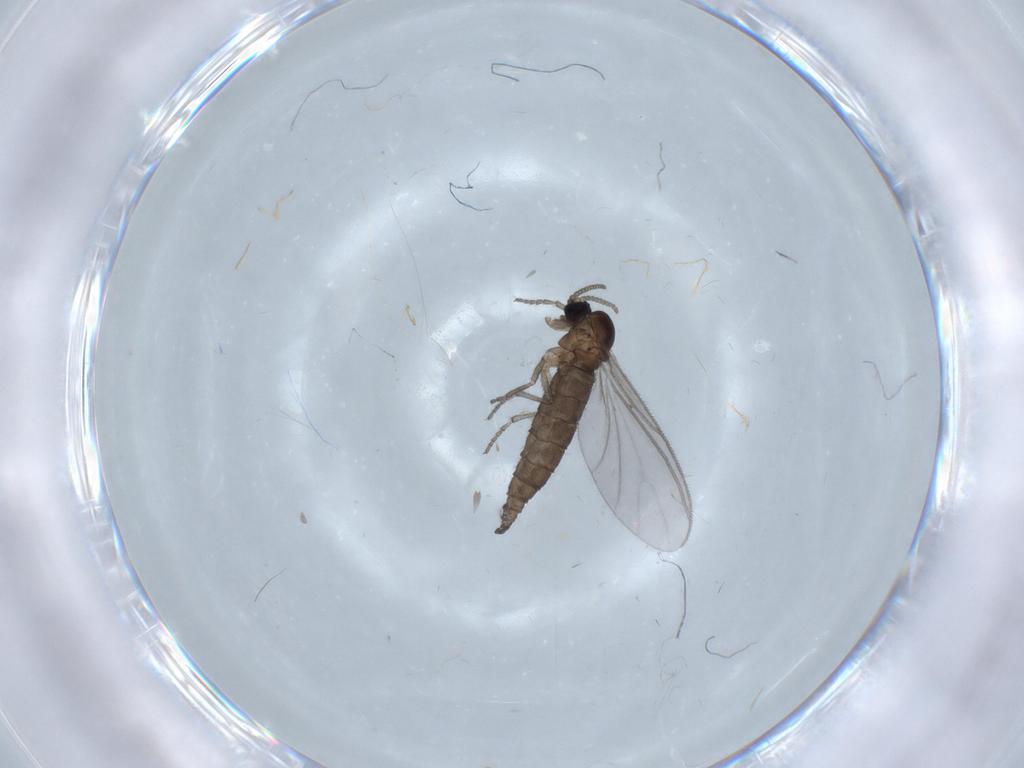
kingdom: Animalia
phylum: Arthropoda
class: Insecta
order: Diptera
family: Sciaridae
